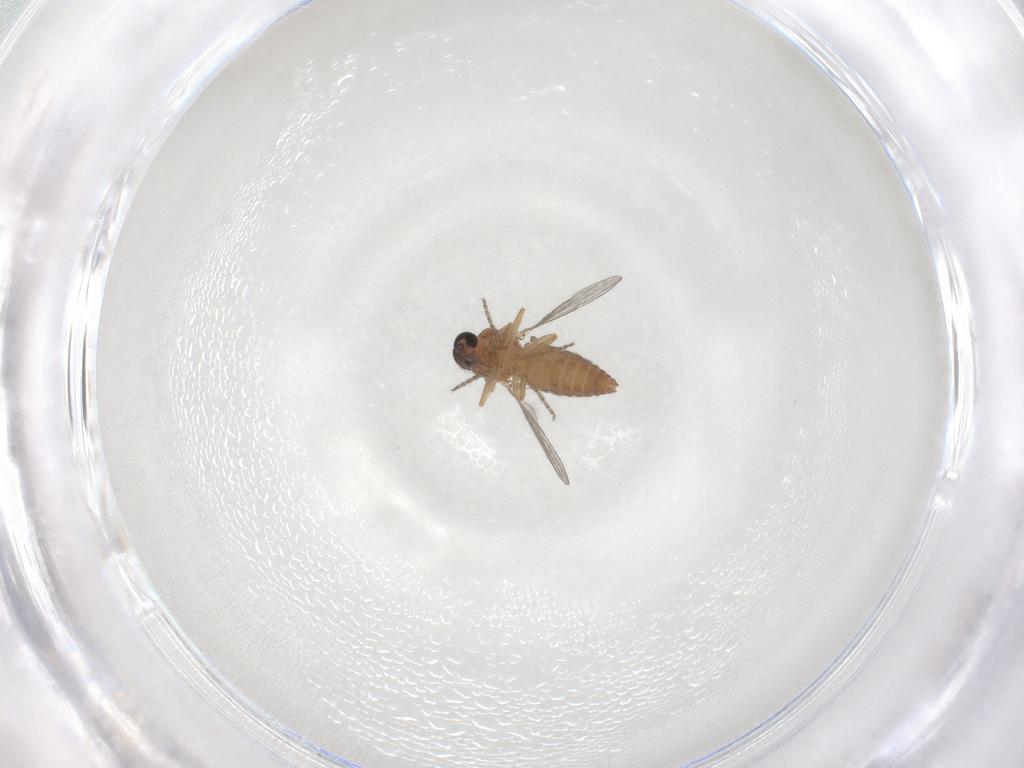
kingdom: Animalia
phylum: Arthropoda
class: Insecta
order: Diptera
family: Ceratopogonidae
